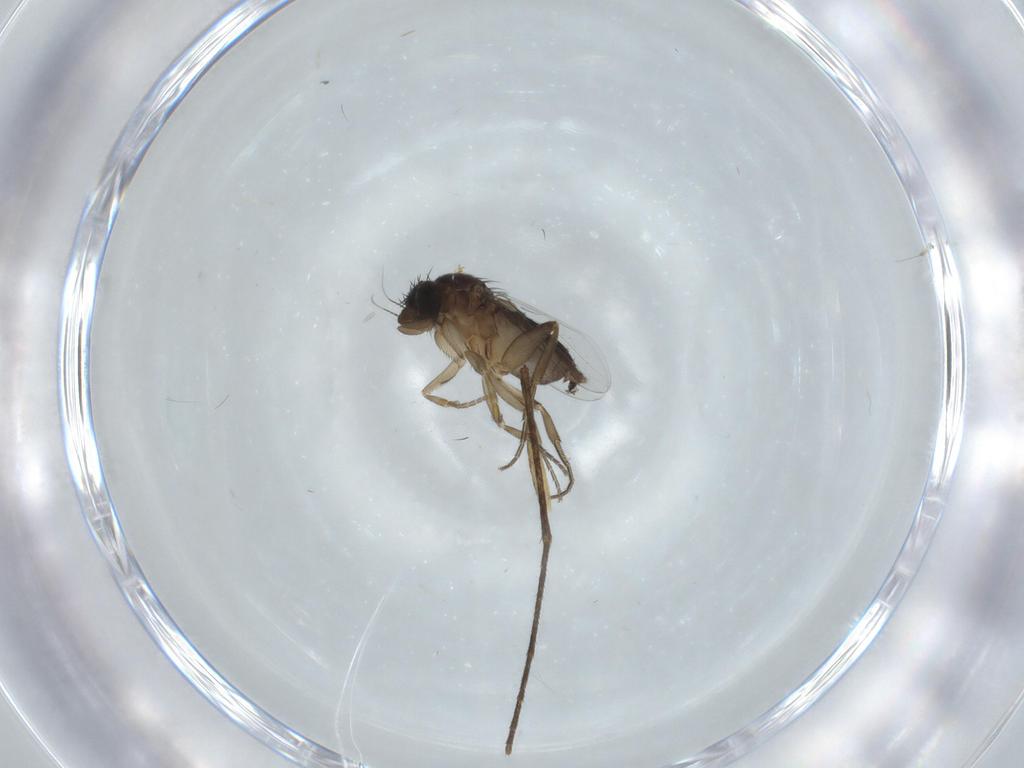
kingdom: Animalia
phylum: Arthropoda
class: Insecta
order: Diptera
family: Phoridae
